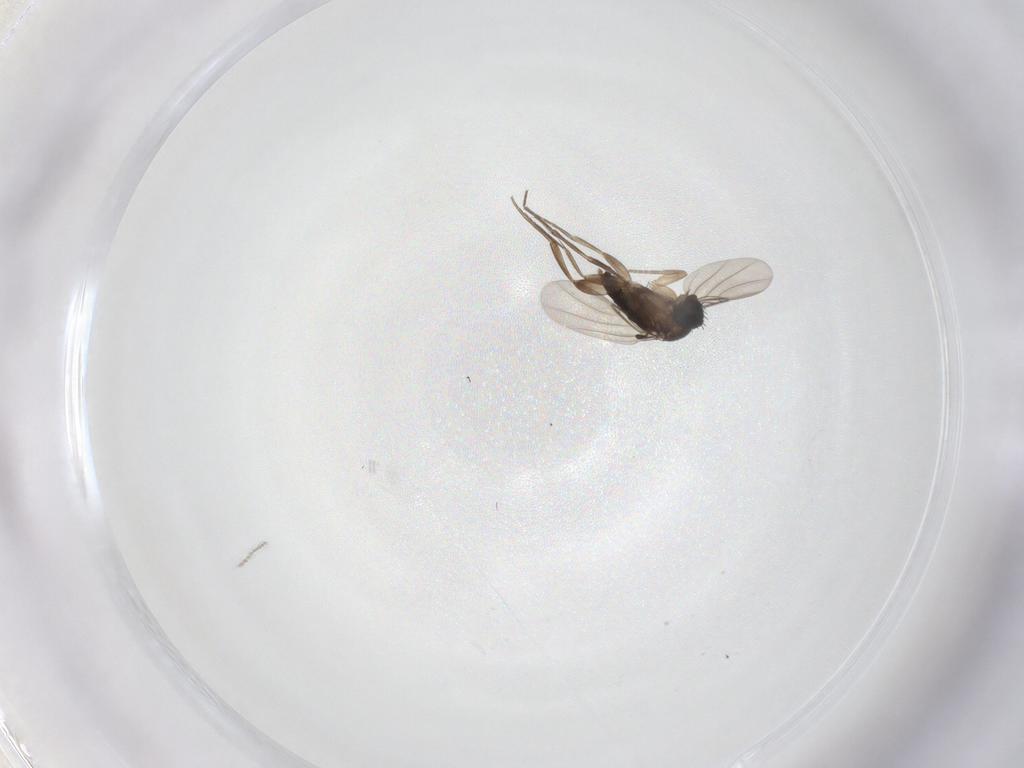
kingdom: Animalia
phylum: Arthropoda
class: Insecta
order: Diptera
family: Phoridae
